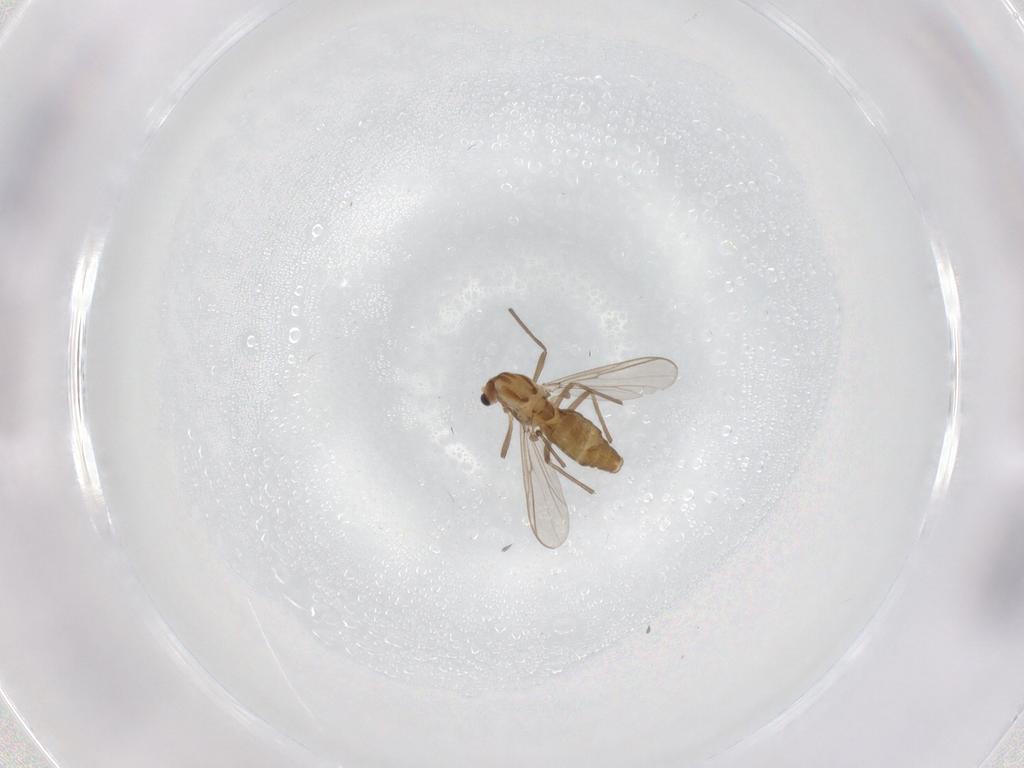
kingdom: Animalia
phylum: Arthropoda
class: Insecta
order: Diptera
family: Chironomidae
